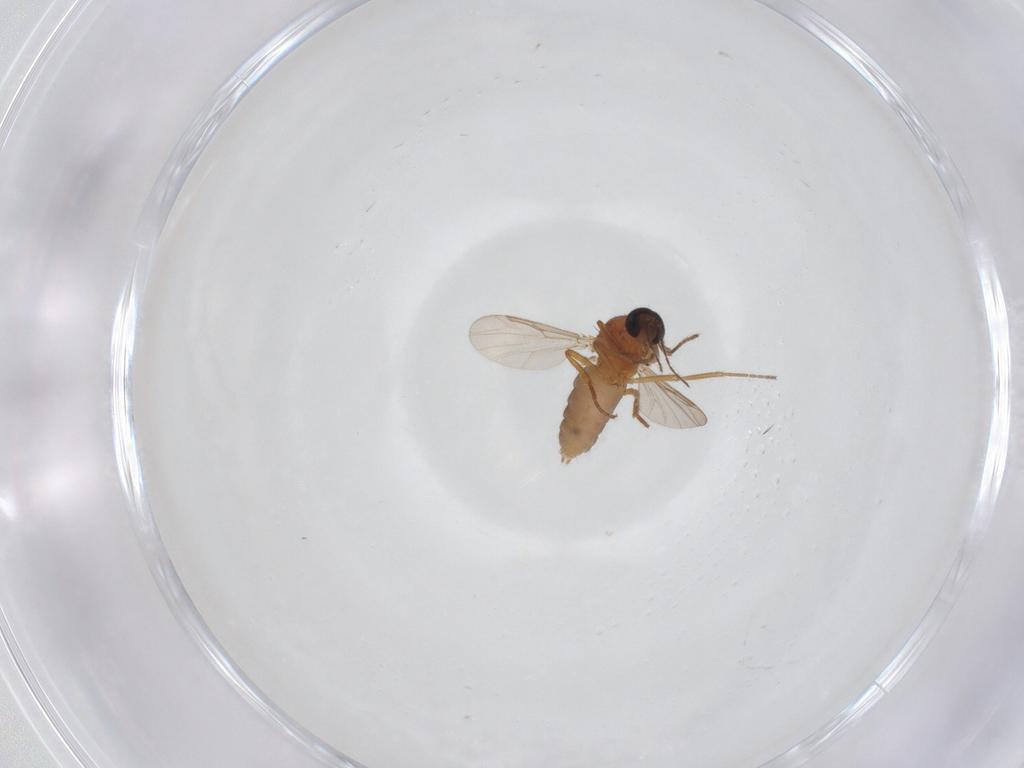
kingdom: Animalia
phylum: Arthropoda
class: Insecta
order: Diptera
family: Ceratopogonidae
